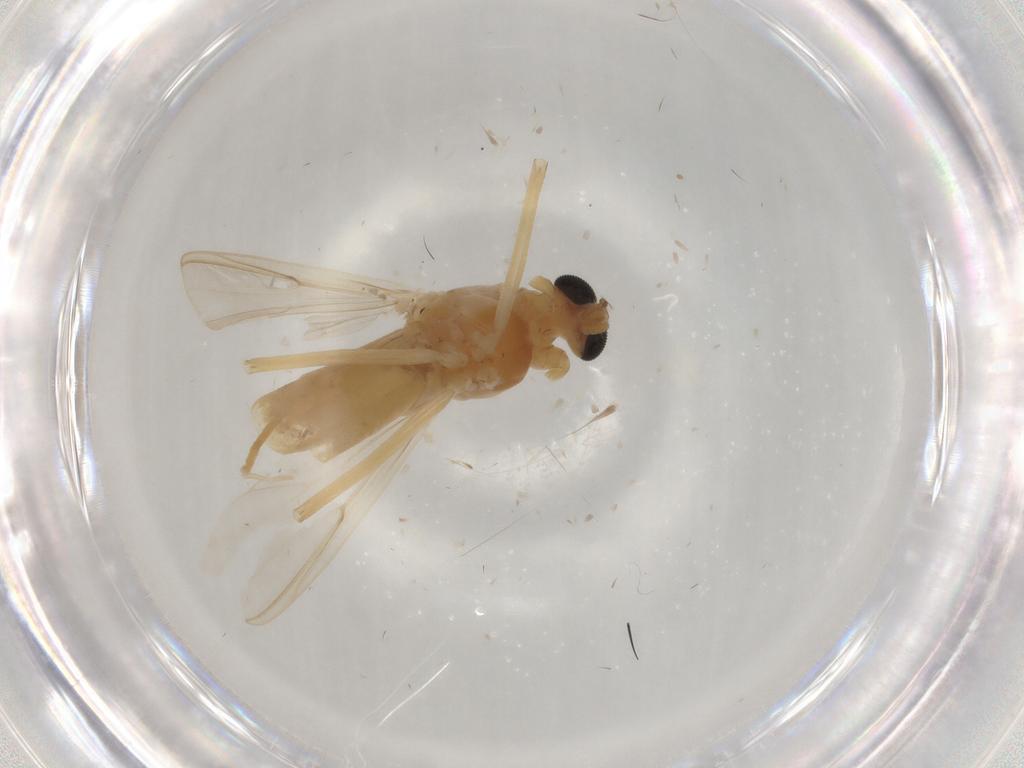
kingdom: Animalia
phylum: Arthropoda
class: Insecta
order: Diptera
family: Chironomidae
